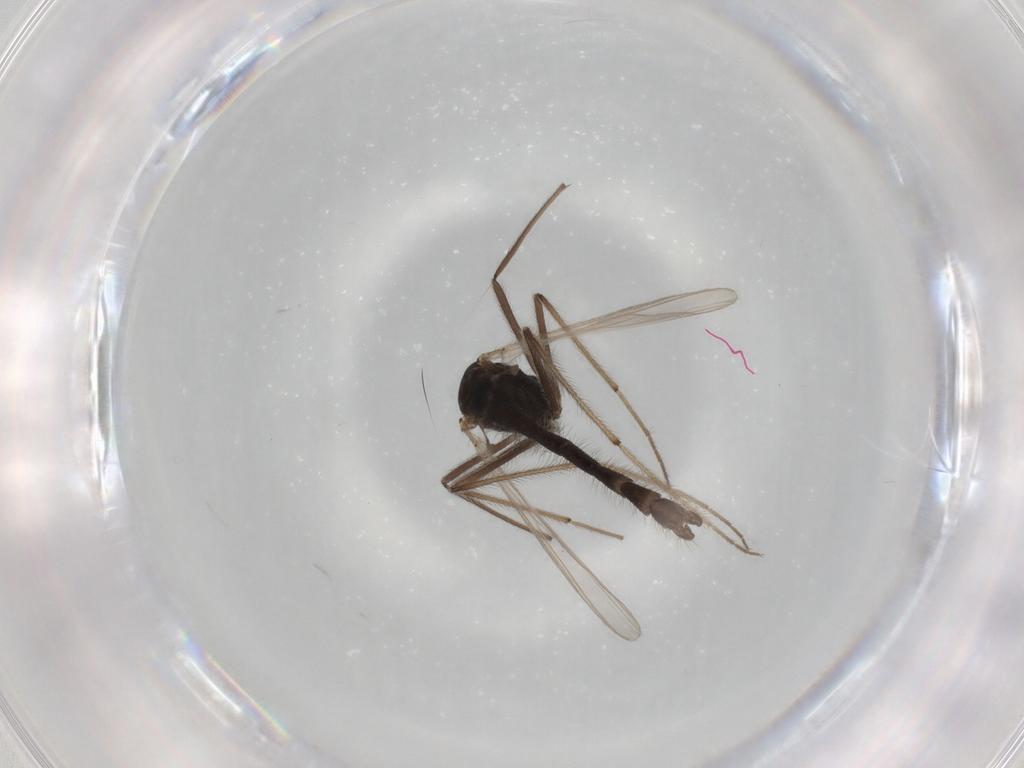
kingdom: Animalia
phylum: Arthropoda
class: Insecta
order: Diptera
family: Chironomidae
